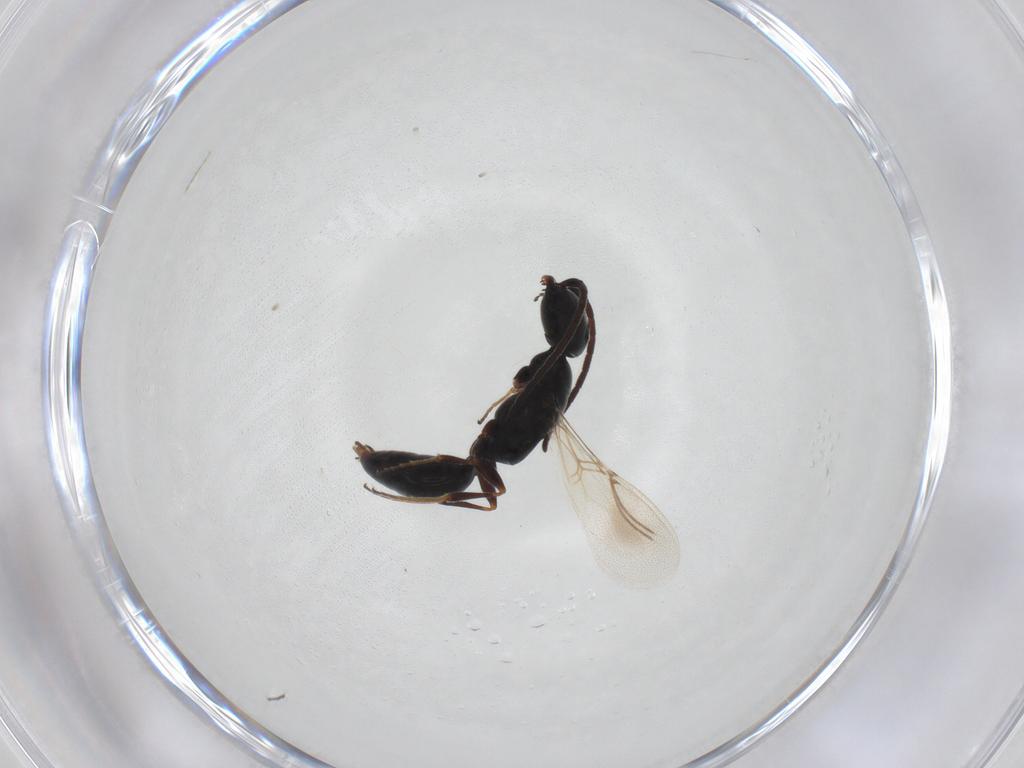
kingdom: Animalia
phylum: Arthropoda
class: Insecta
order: Hymenoptera
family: Bethylidae
